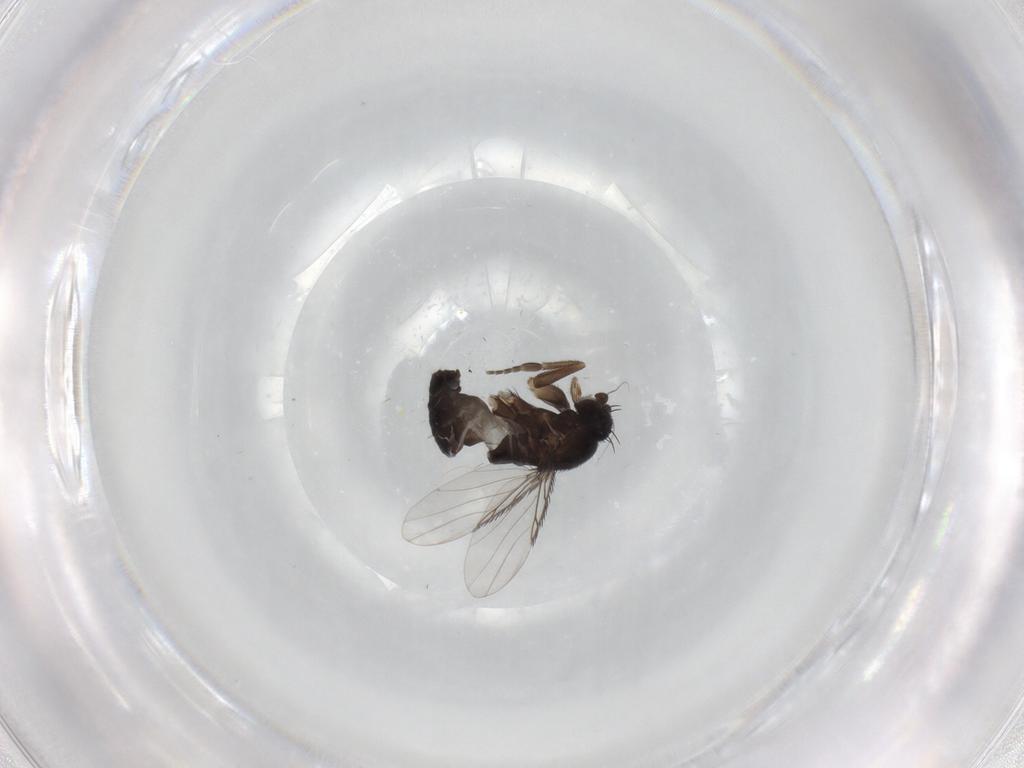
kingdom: Animalia
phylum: Arthropoda
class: Insecta
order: Diptera
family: Phoridae
